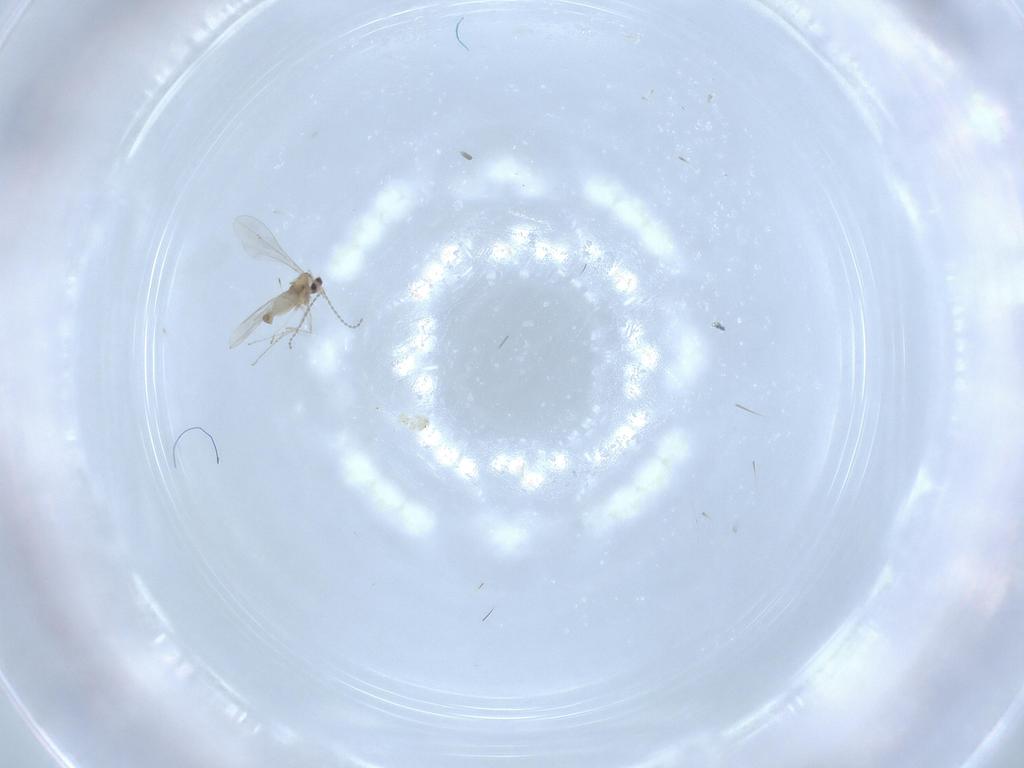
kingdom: Animalia
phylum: Arthropoda
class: Insecta
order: Diptera
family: Cecidomyiidae
